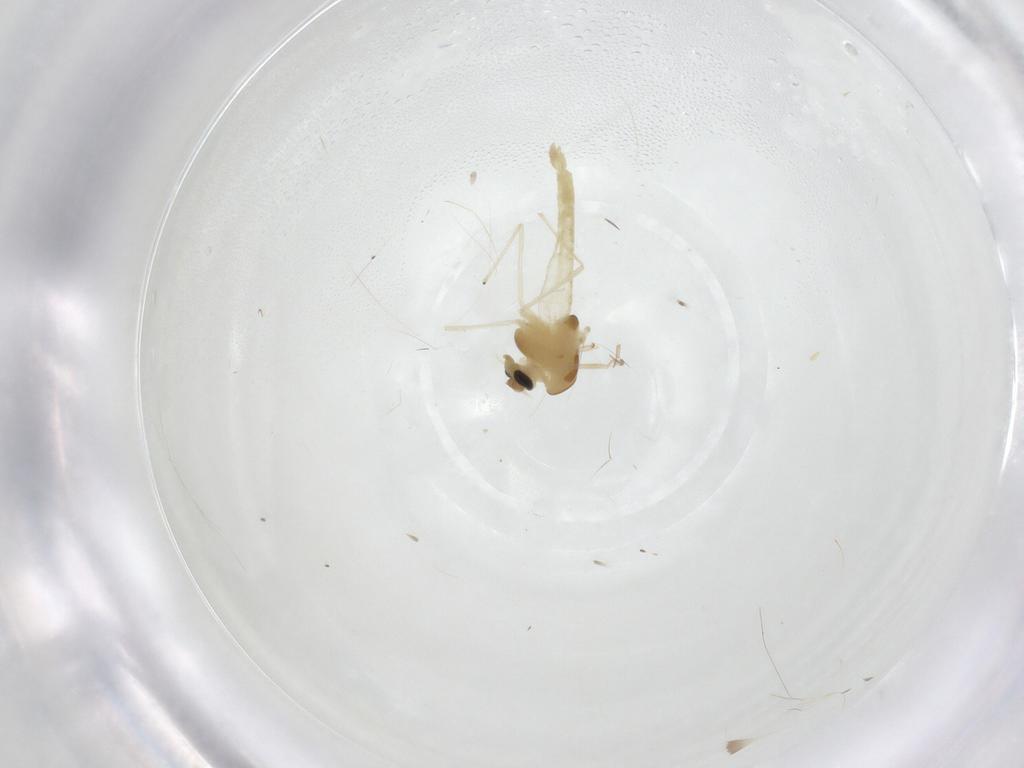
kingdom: Animalia
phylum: Arthropoda
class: Insecta
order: Diptera
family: Chironomidae
